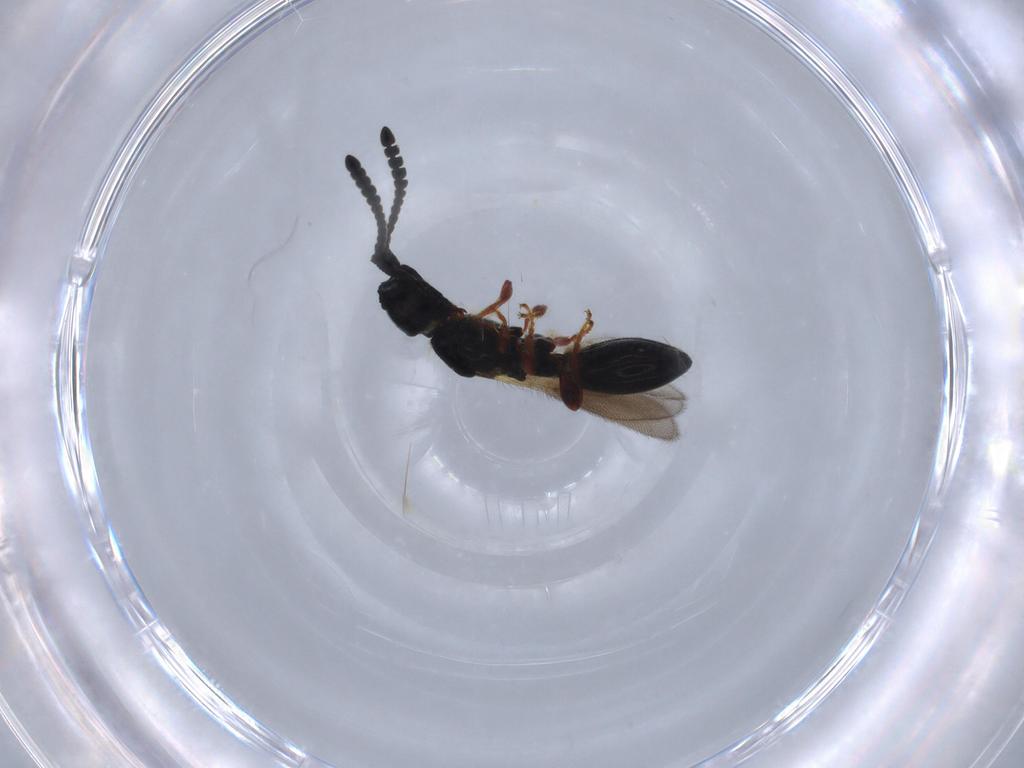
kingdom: Animalia
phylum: Arthropoda
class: Insecta
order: Hymenoptera
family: Diapriidae
